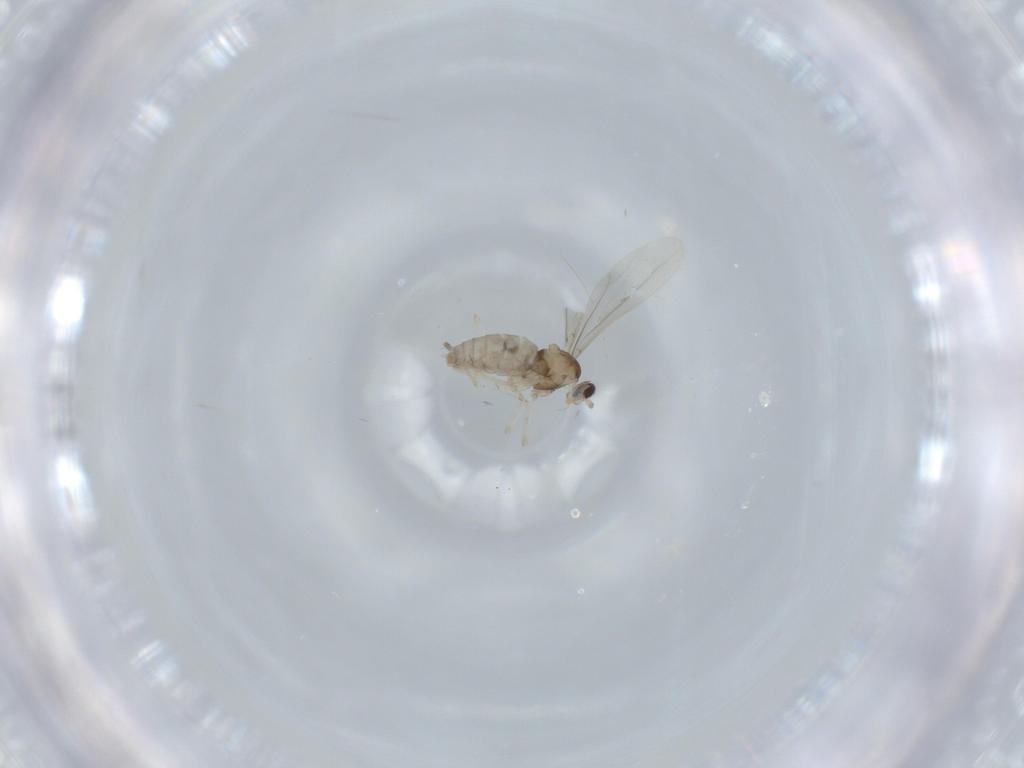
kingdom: Animalia
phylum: Arthropoda
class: Insecta
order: Diptera
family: Cecidomyiidae
